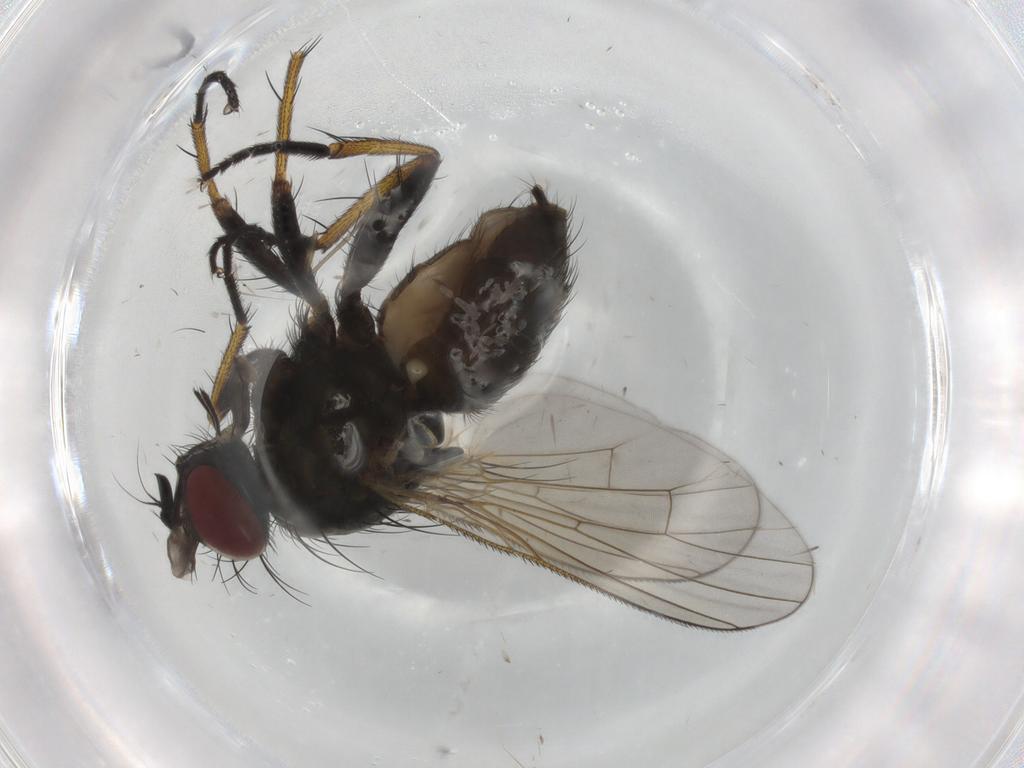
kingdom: Animalia
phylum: Arthropoda
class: Insecta
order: Diptera
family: Muscidae
